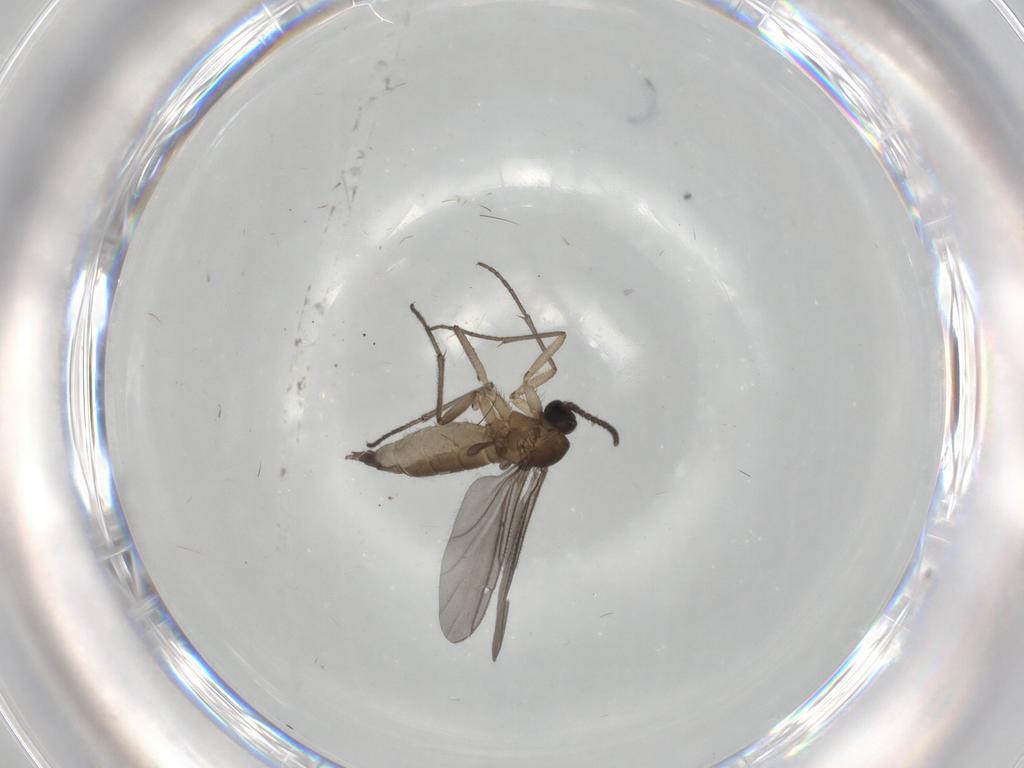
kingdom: Animalia
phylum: Arthropoda
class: Insecta
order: Diptera
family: Sciaridae
